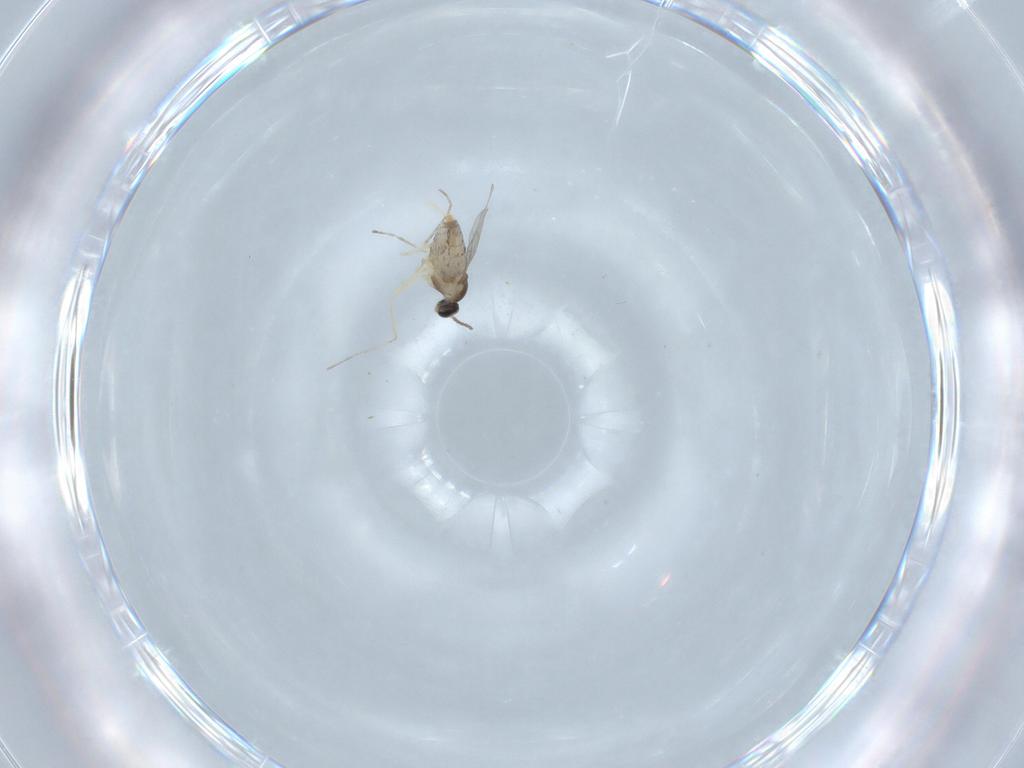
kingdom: Animalia
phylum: Arthropoda
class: Insecta
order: Diptera
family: Cecidomyiidae
